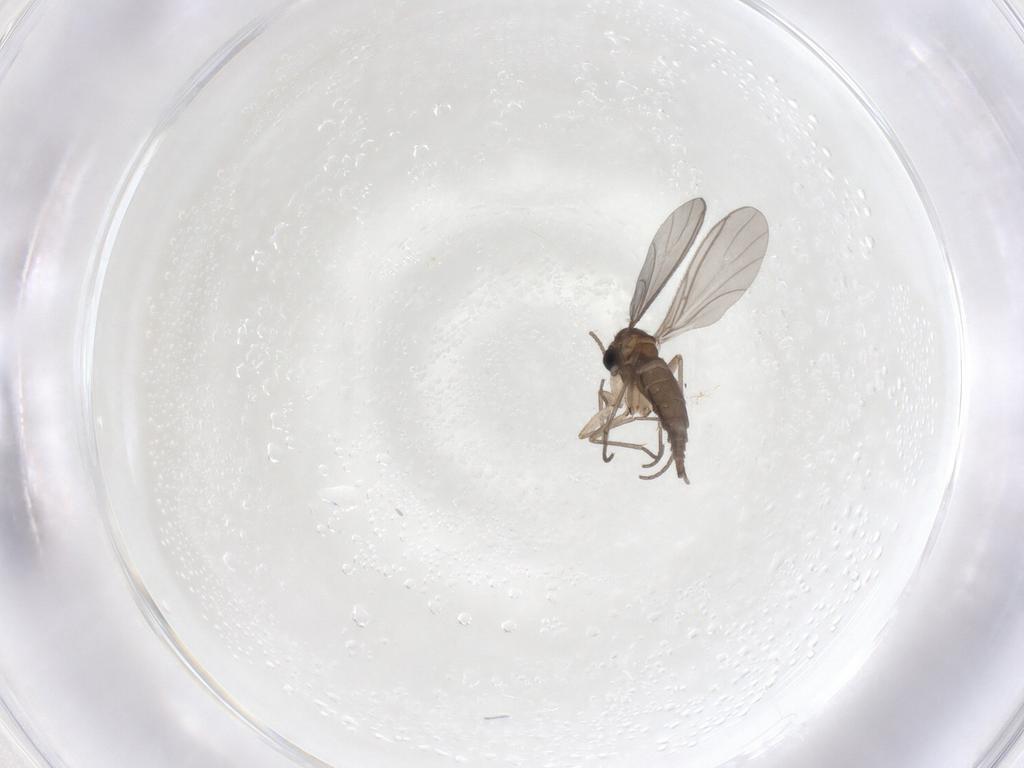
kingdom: Animalia
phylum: Arthropoda
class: Insecta
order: Diptera
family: Sciaridae
